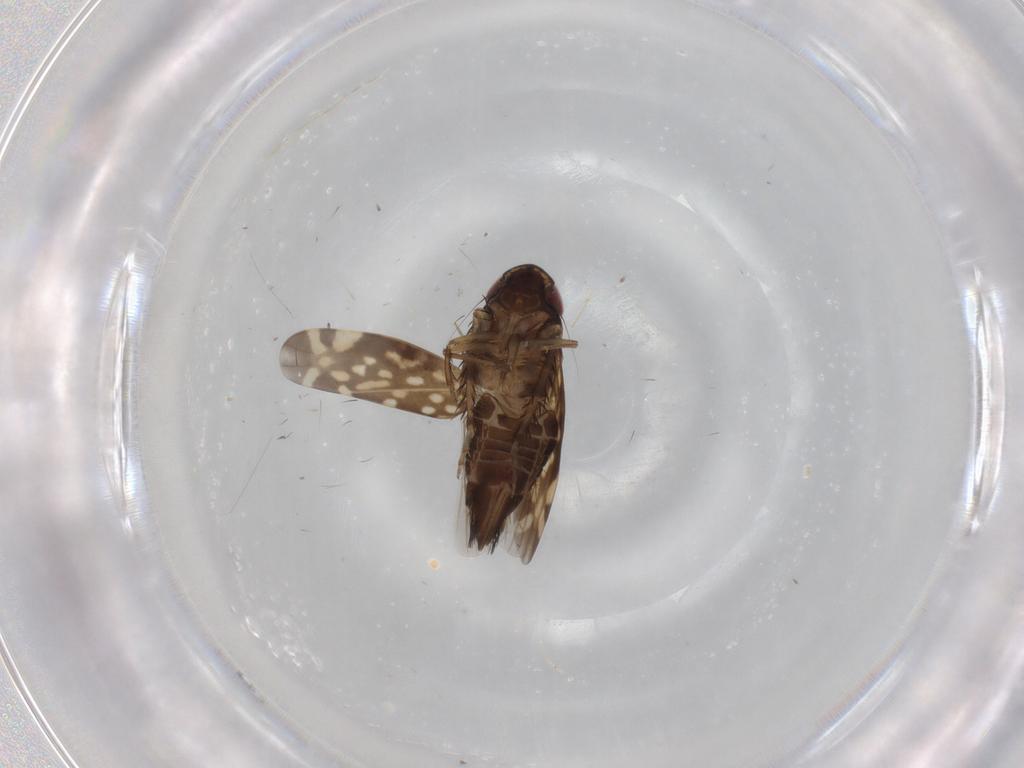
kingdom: Animalia
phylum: Arthropoda
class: Insecta
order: Hemiptera
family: Cicadellidae
